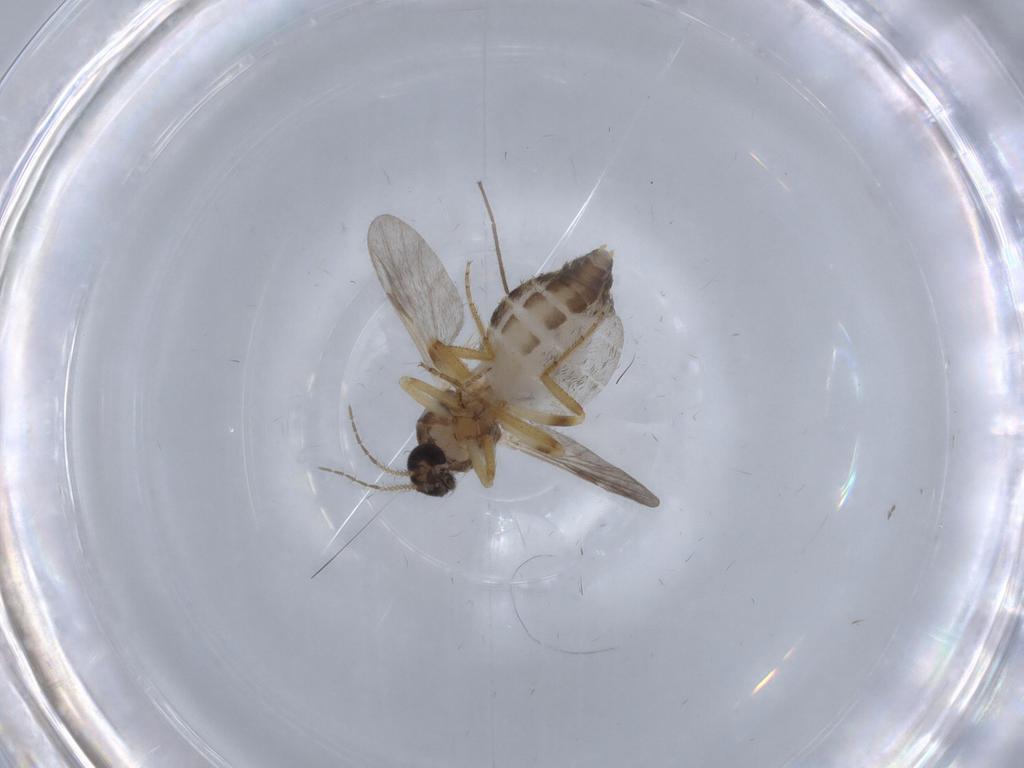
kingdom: Animalia
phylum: Arthropoda
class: Insecta
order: Diptera
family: Ceratopogonidae
